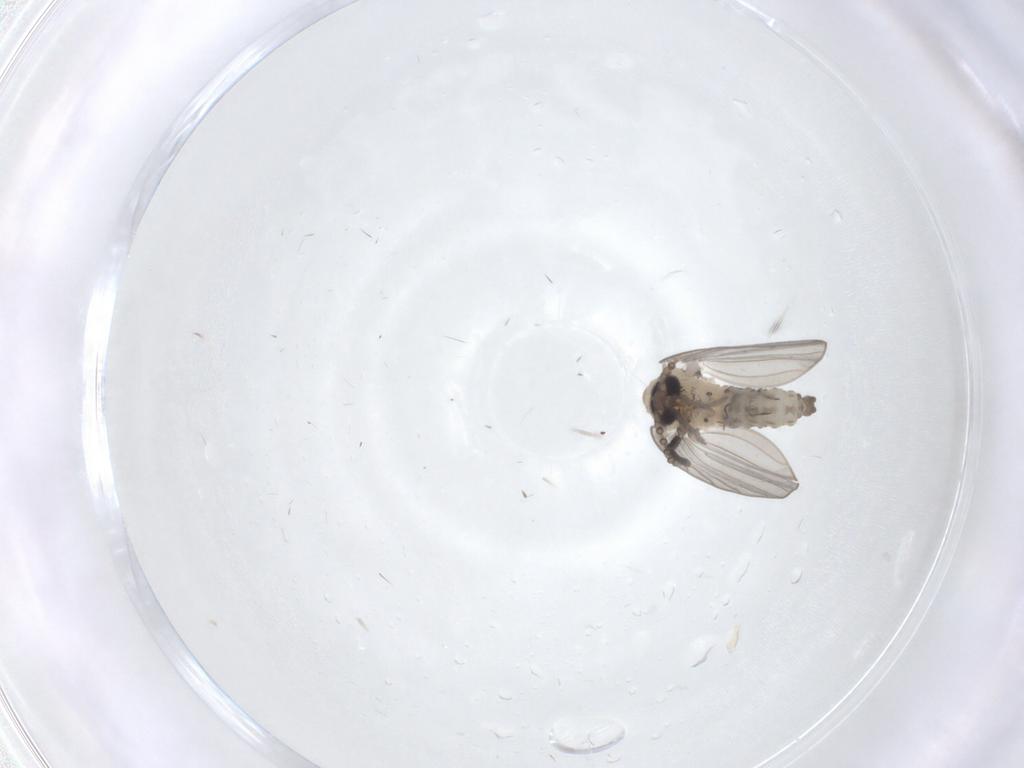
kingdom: Animalia
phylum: Arthropoda
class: Insecta
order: Diptera
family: Psychodidae
